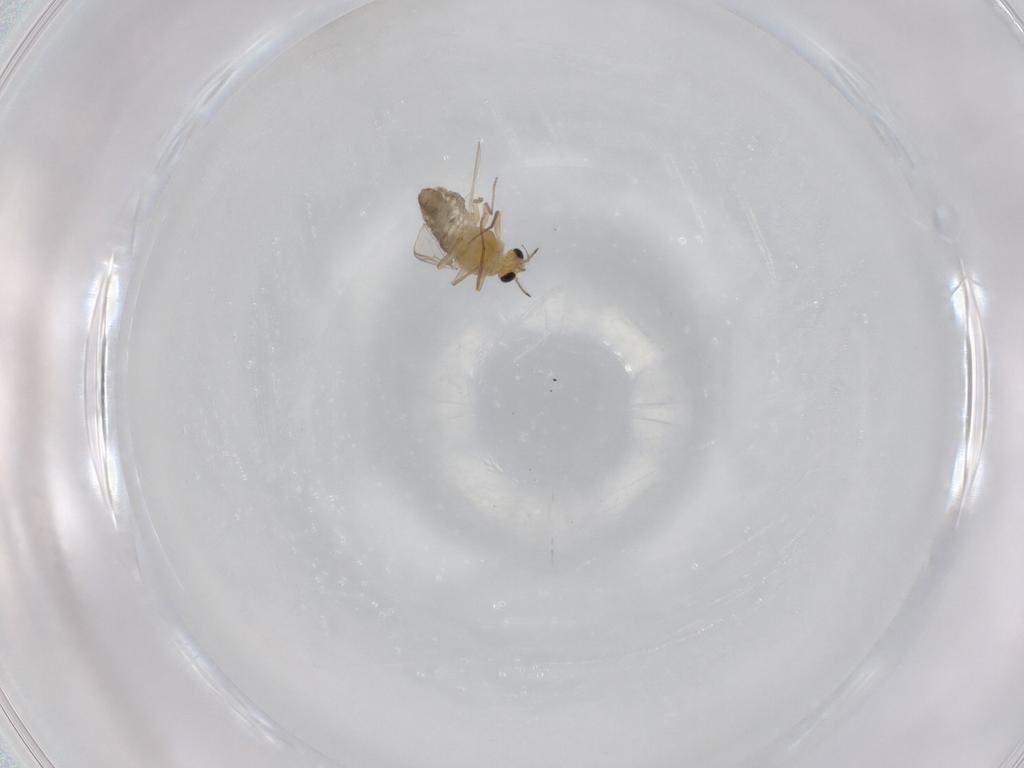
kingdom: Animalia
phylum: Arthropoda
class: Insecta
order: Diptera
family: Chironomidae
